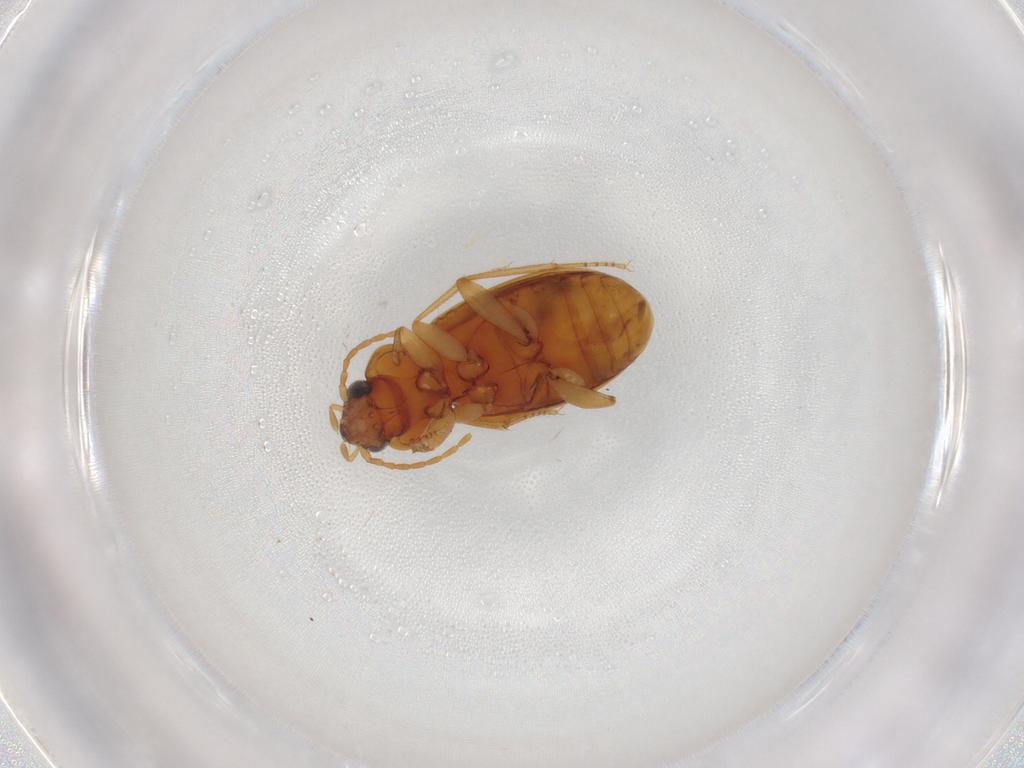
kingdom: Animalia
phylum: Arthropoda
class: Insecta
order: Coleoptera
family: Carabidae
